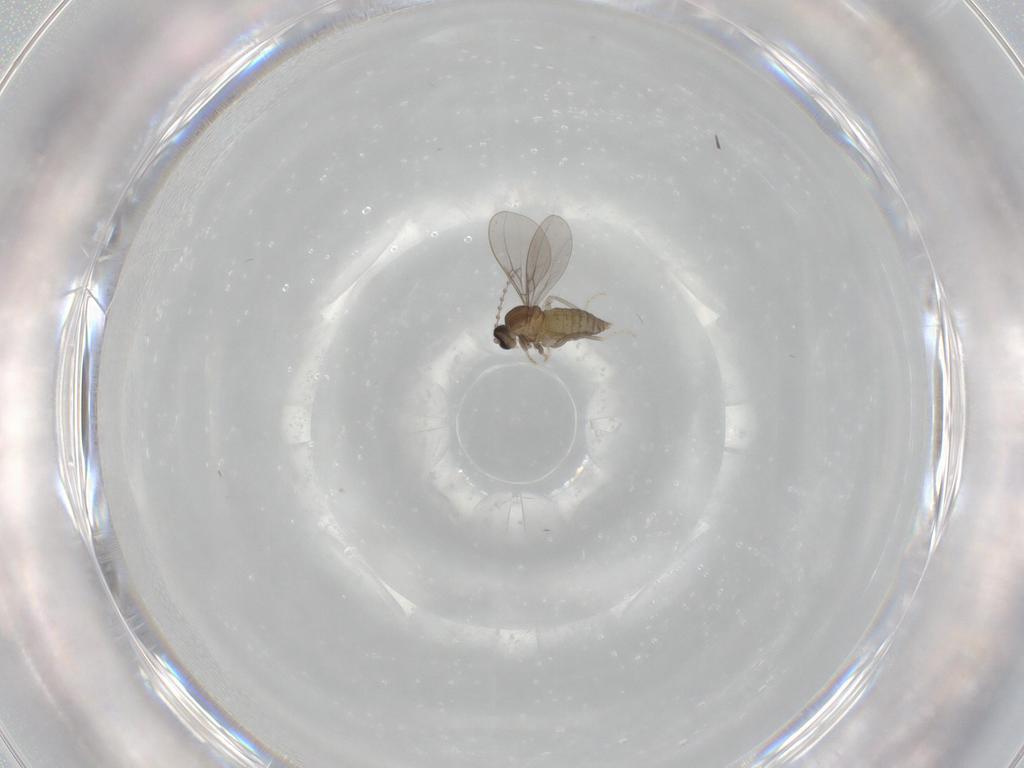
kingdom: Animalia
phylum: Arthropoda
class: Insecta
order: Diptera
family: Cecidomyiidae
